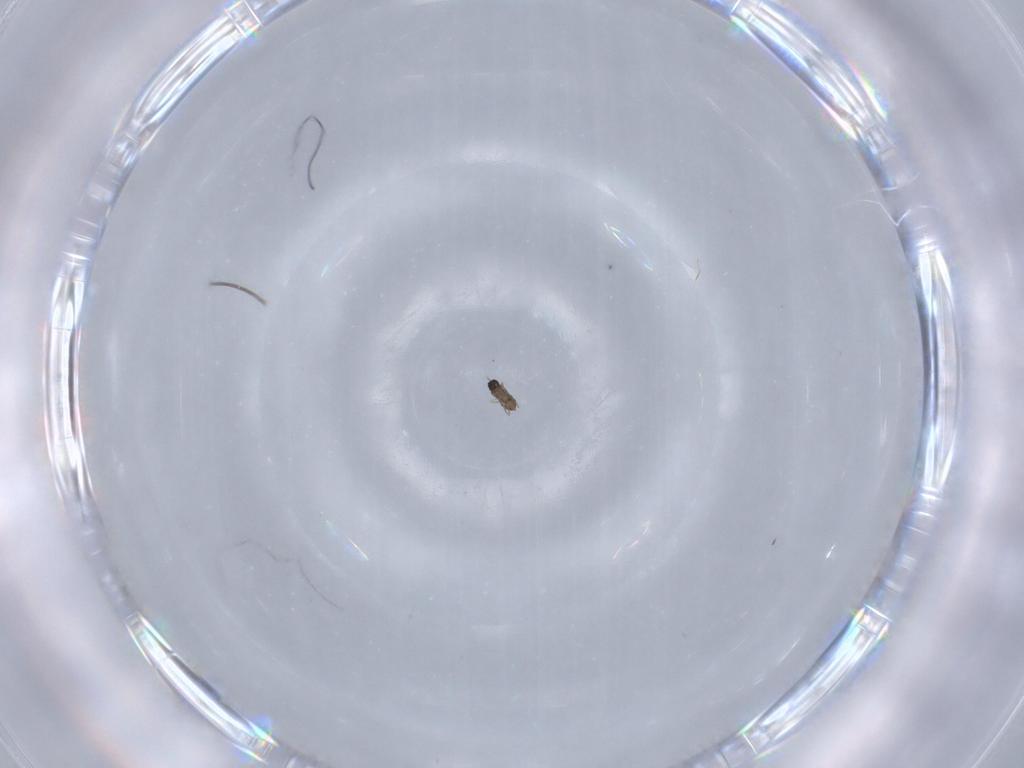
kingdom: Animalia
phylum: Arthropoda
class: Insecta
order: Hymenoptera
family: Mymaridae
